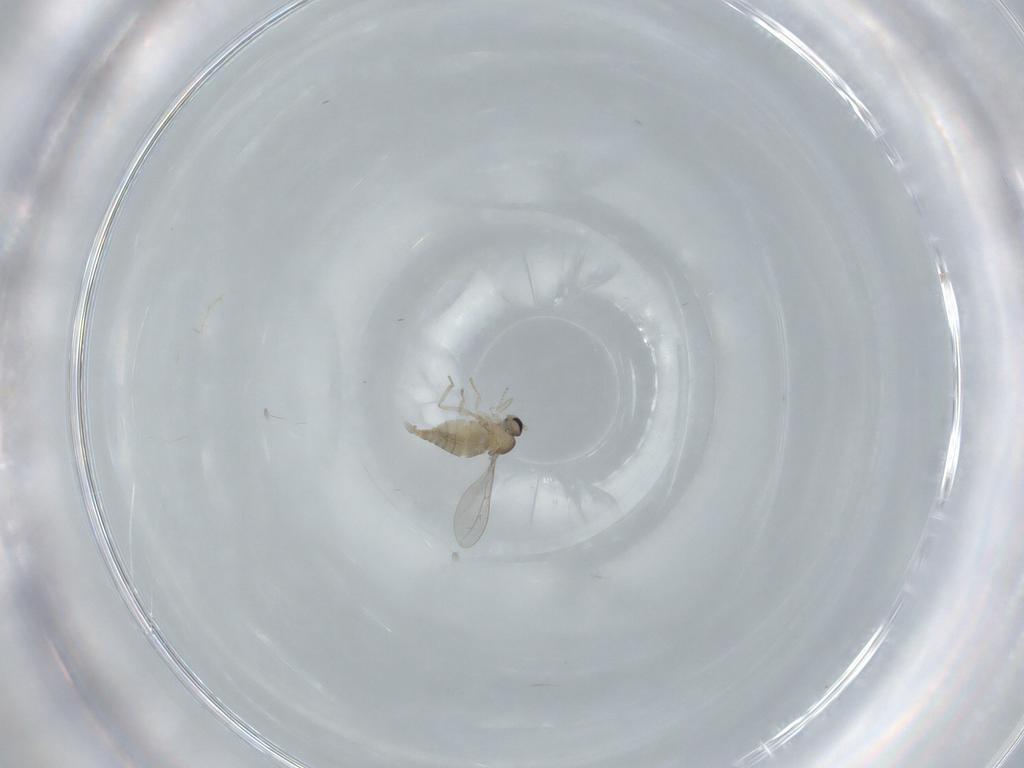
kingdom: Animalia
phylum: Arthropoda
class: Insecta
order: Diptera
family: Cecidomyiidae
